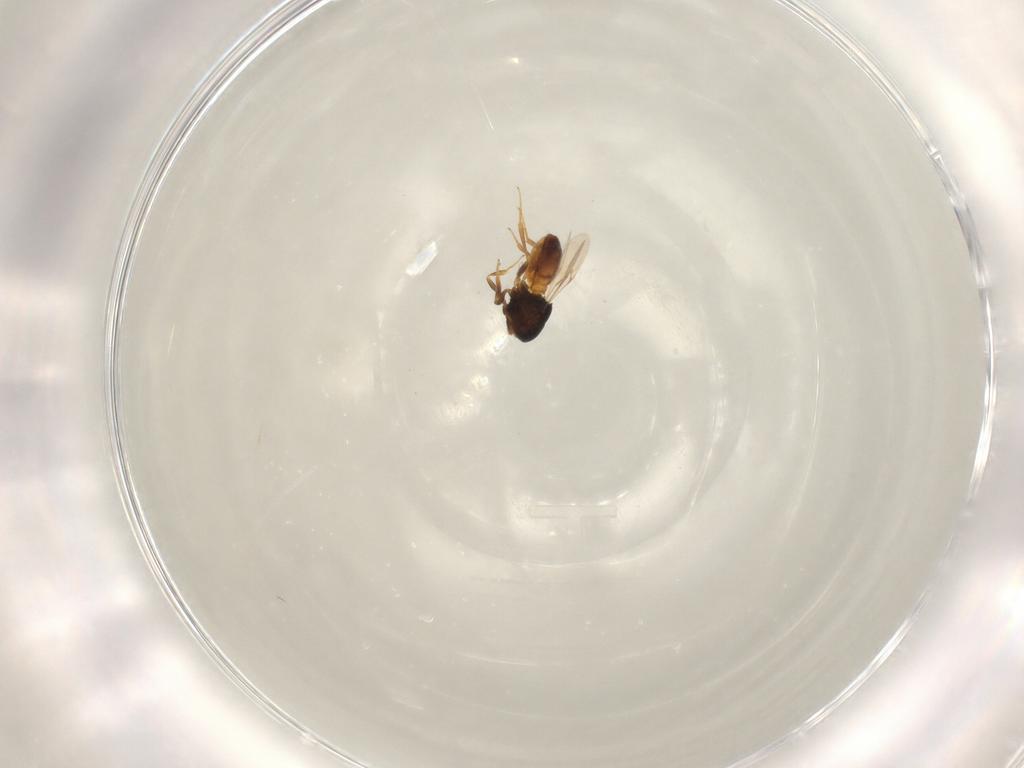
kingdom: Animalia
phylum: Arthropoda
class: Insecta
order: Hymenoptera
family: Scelionidae
